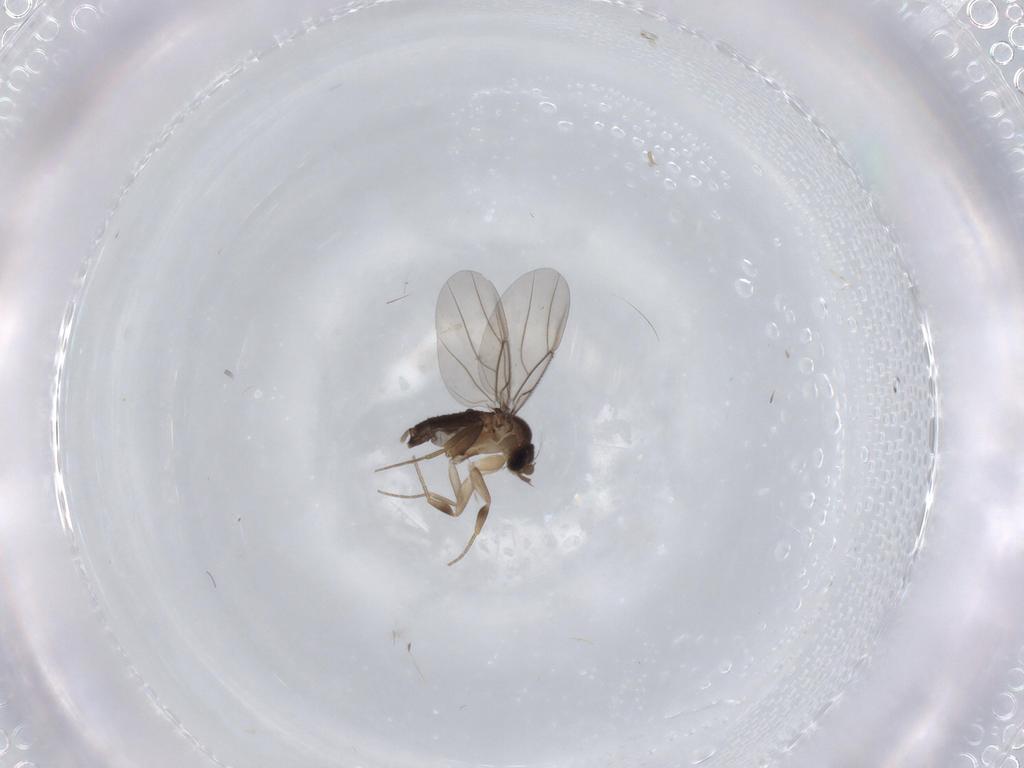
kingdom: Animalia
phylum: Arthropoda
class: Insecta
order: Diptera
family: Phoridae
